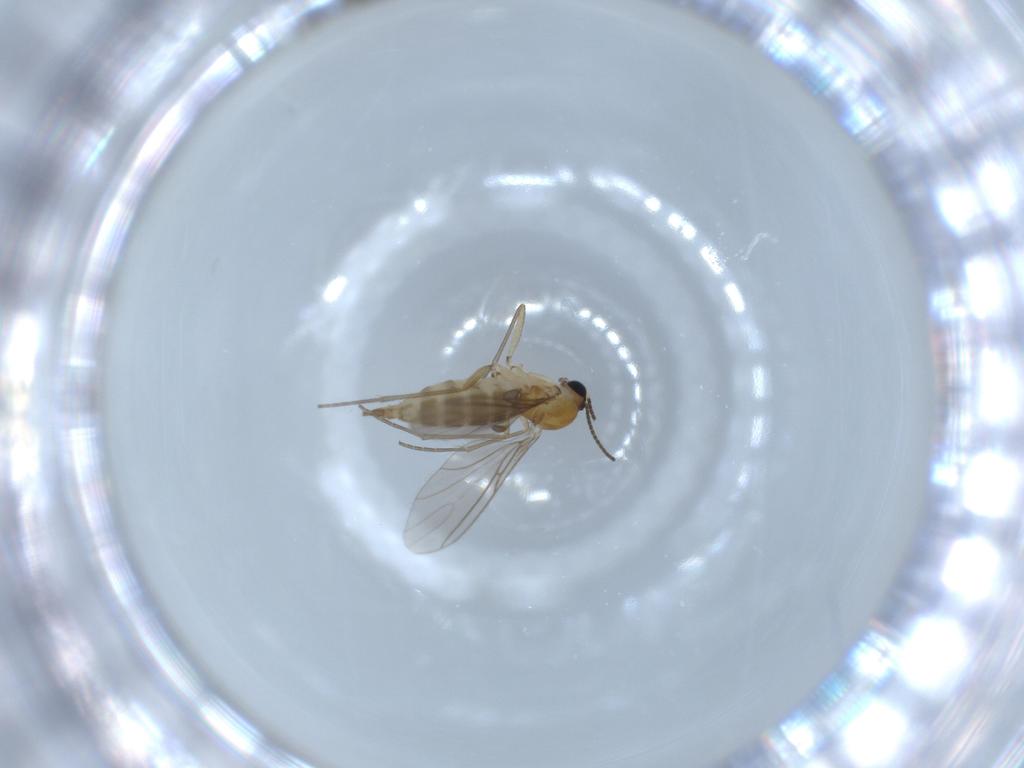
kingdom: Animalia
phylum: Arthropoda
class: Insecta
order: Diptera
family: Sciaridae
